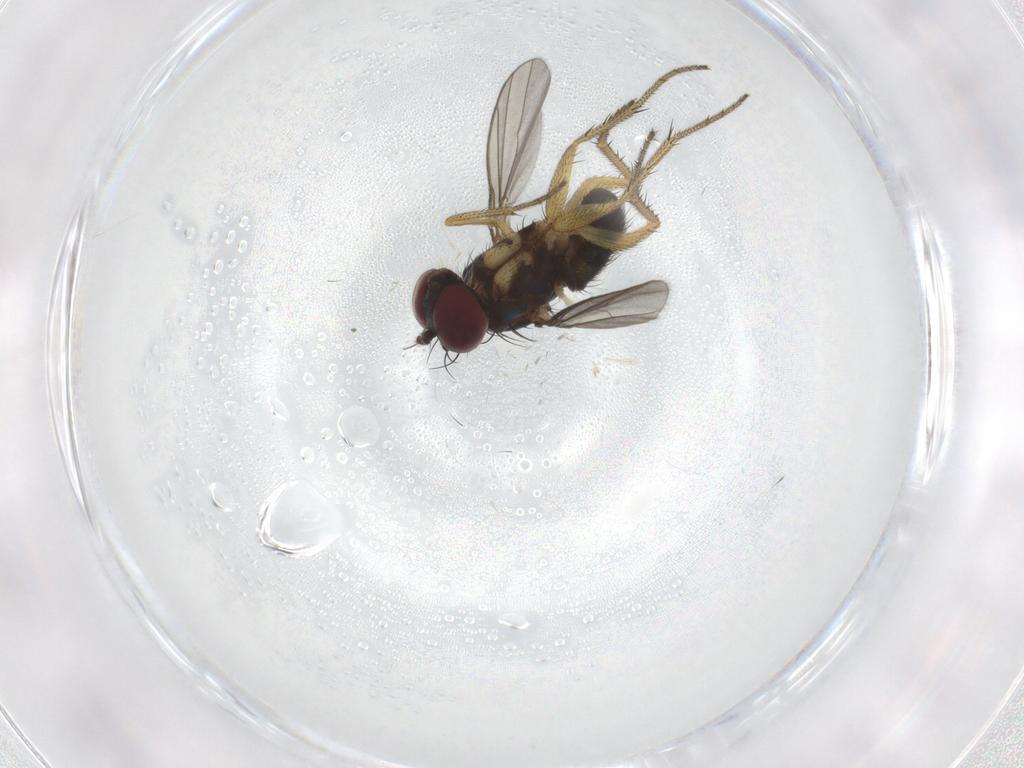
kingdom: Animalia
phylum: Arthropoda
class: Insecta
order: Diptera
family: Dolichopodidae
